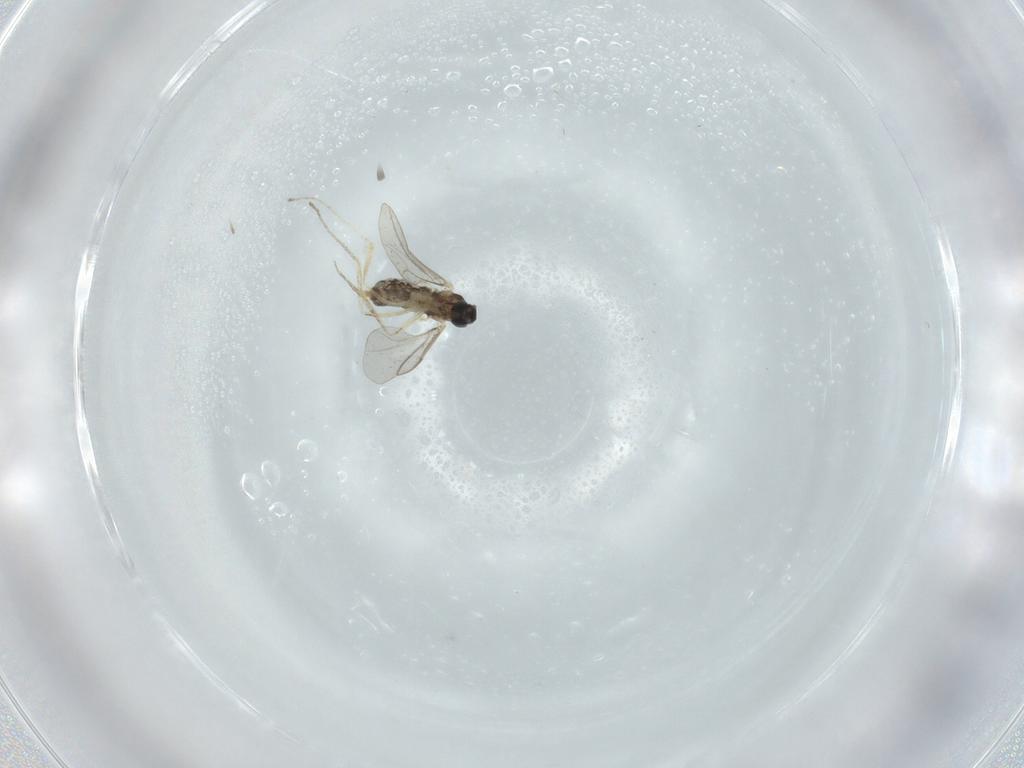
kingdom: Animalia
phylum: Arthropoda
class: Insecta
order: Diptera
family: Cecidomyiidae
